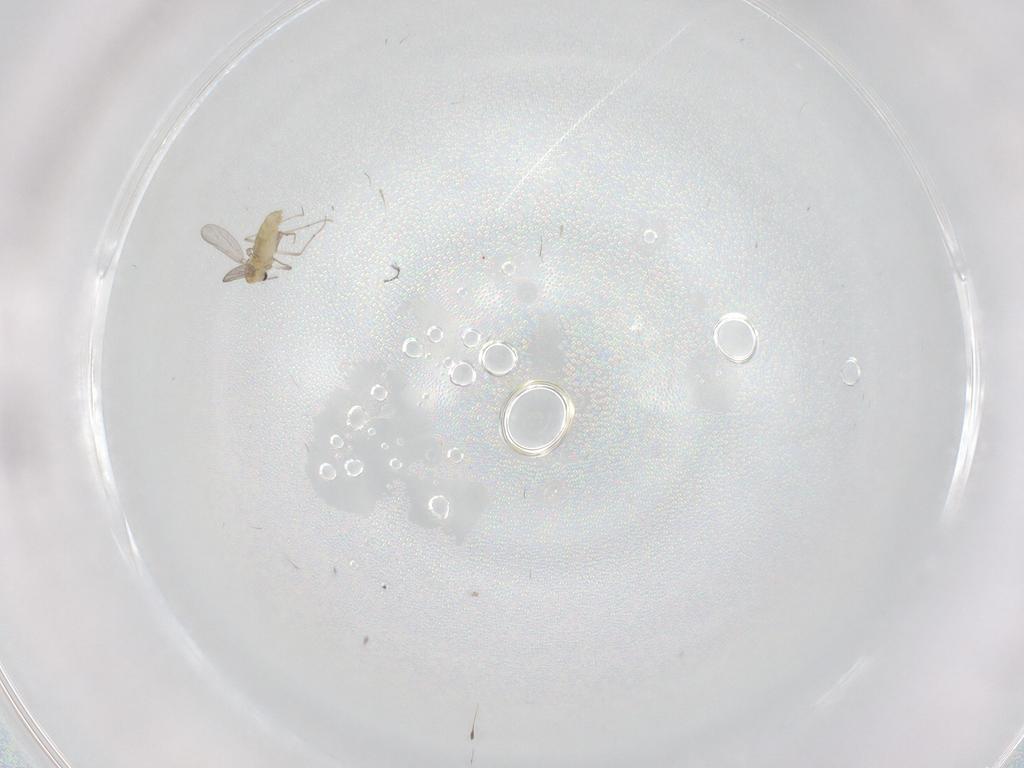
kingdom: Animalia
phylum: Arthropoda
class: Insecta
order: Diptera
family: Chironomidae
